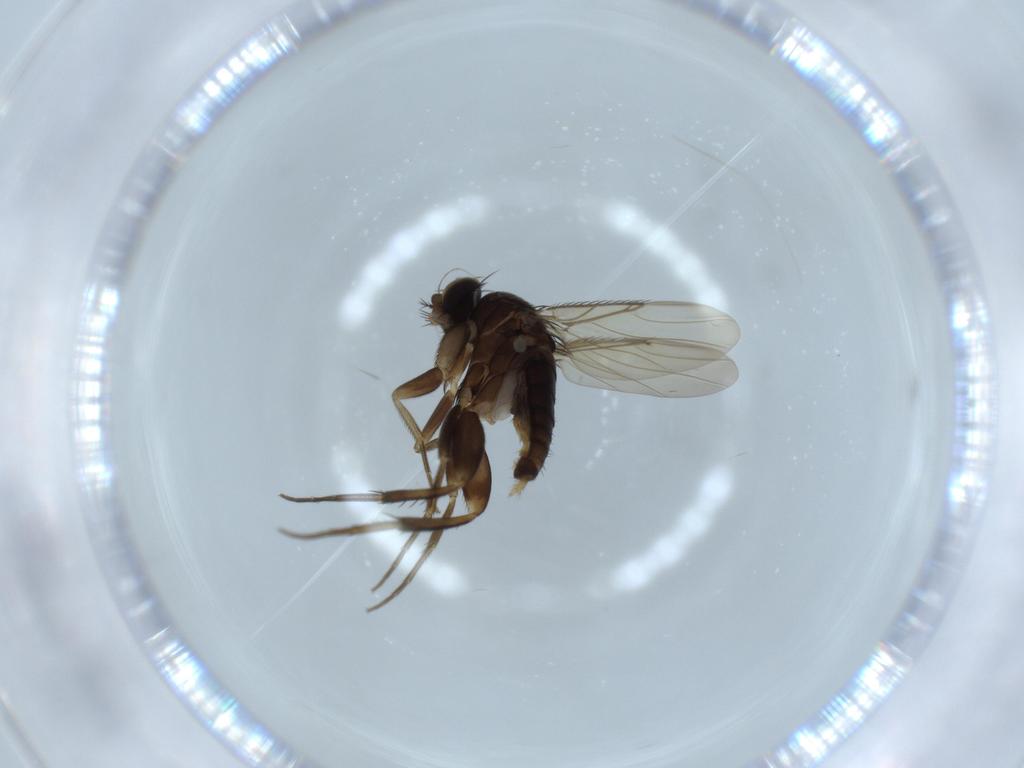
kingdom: Animalia
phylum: Arthropoda
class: Insecta
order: Diptera
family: Phoridae
